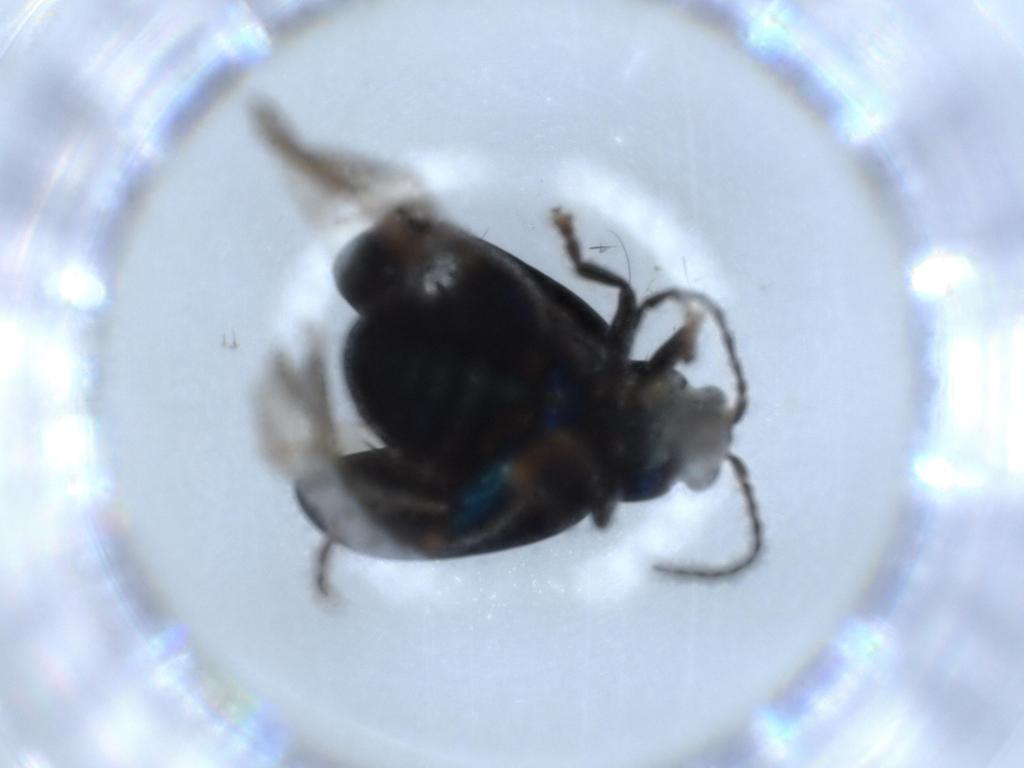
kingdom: Animalia
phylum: Arthropoda
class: Insecta
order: Coleoptera
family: Chrysomelidae
